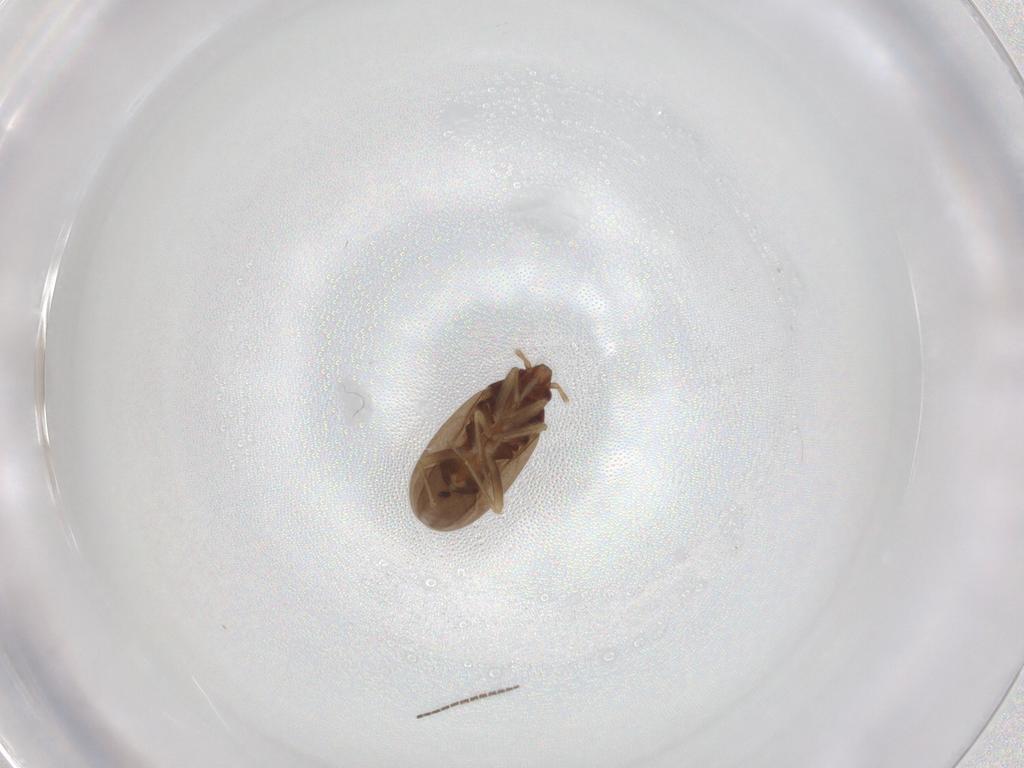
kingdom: Animalia
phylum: Arthropoda
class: Insecta
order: Hemiptera
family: Ceratocombidae
